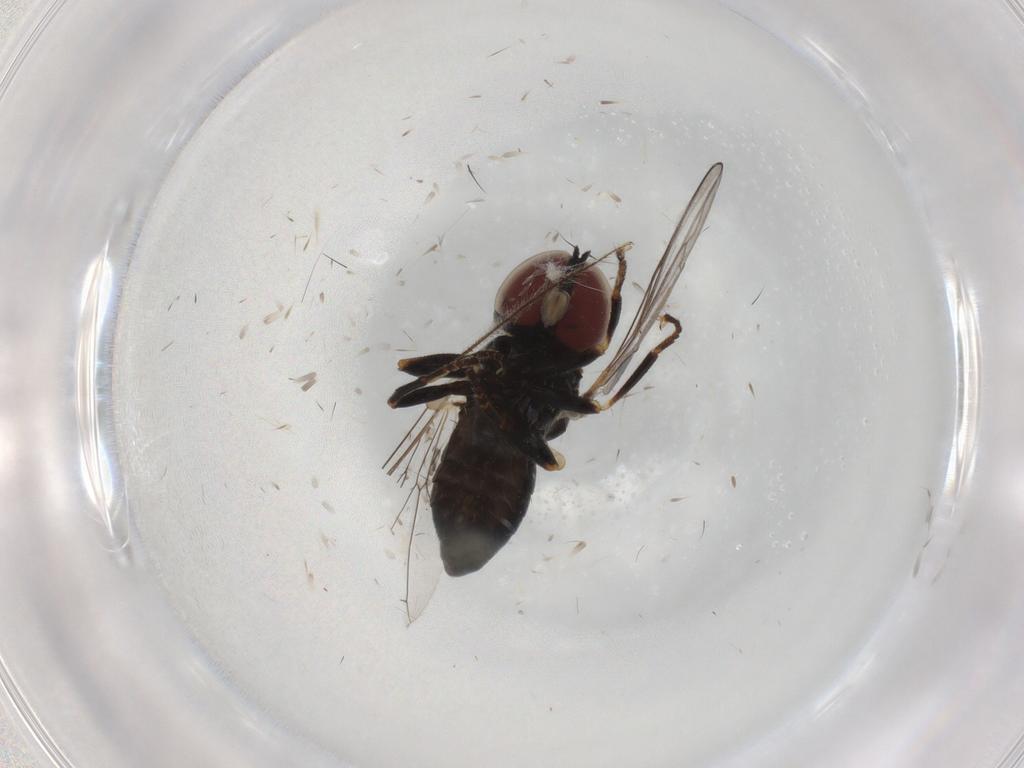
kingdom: Animalia
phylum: Arthropoda
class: Insecta
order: Diptera
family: Pipunculidae
